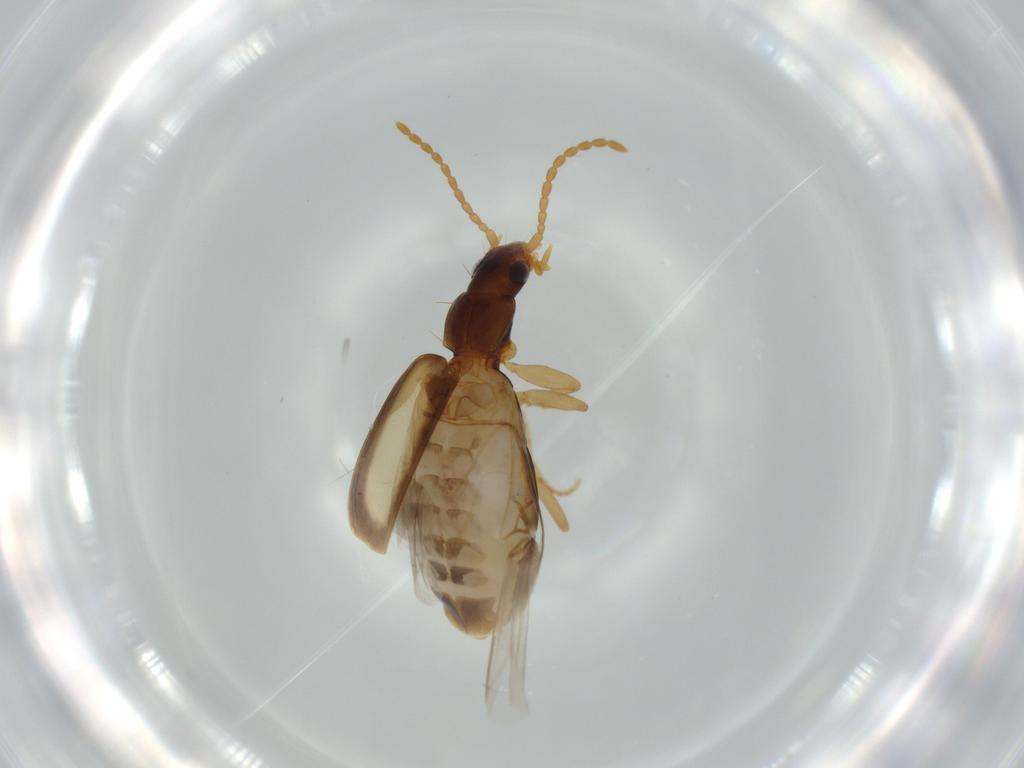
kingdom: Animalia
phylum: Arthropoda
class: Insecta
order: Coleoptera
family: Carabidae
